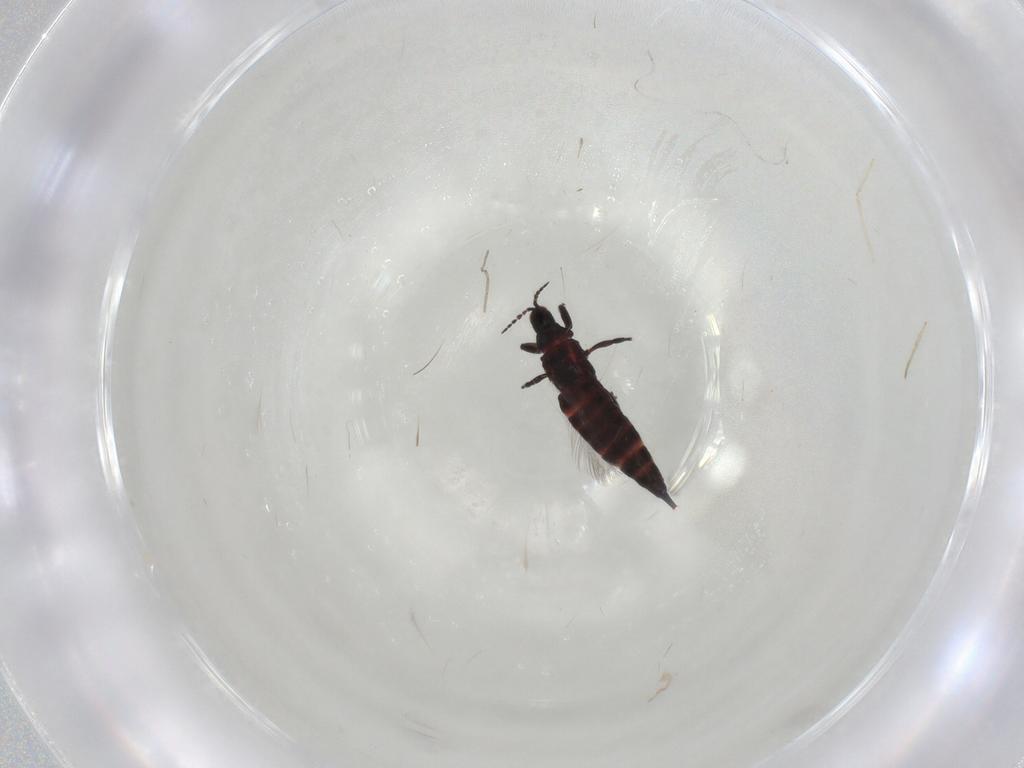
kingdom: Animalia
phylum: Arthropoda
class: Insecta
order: Thysanoptera
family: Phlaeothripidae
